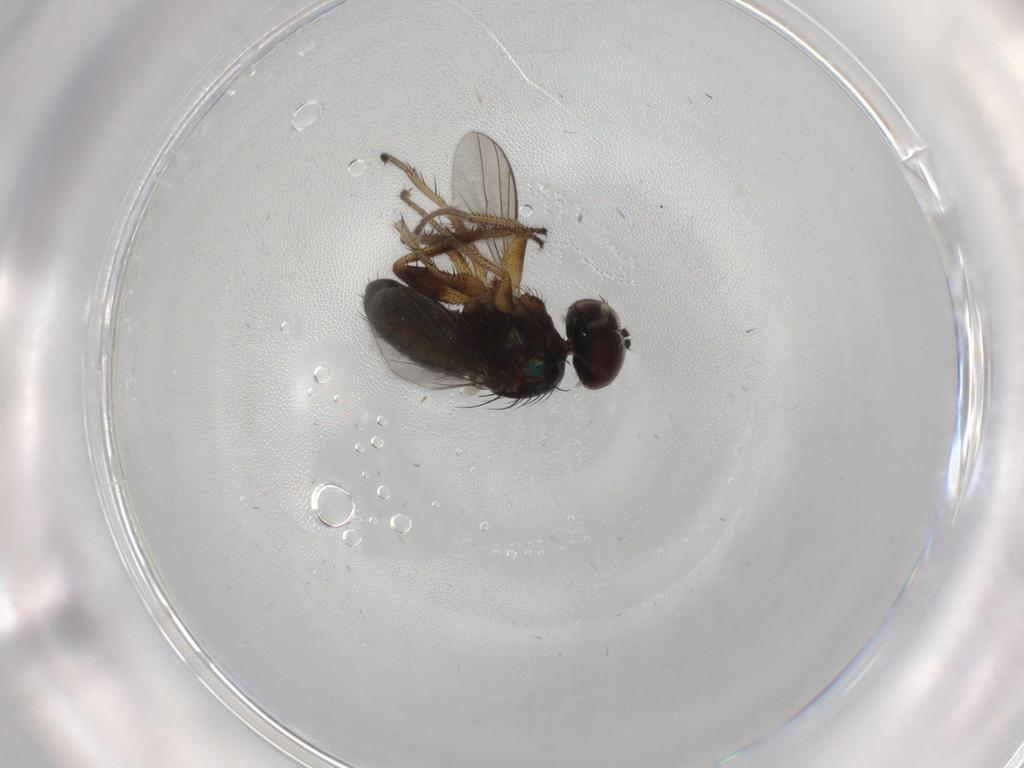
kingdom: Animalia
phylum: Arthropoda
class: Insecta
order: Diptera
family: Dolichopodidae
